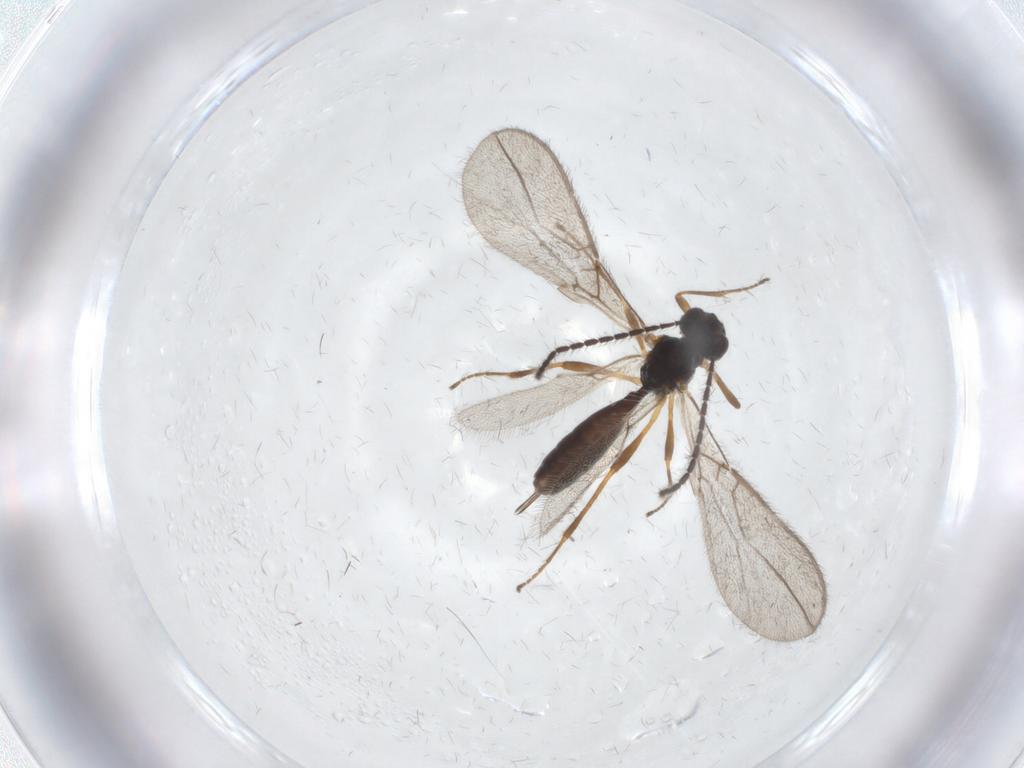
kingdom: Animalia
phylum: Arthropoda
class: Insecta
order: Hymenoptera
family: Braconidae
